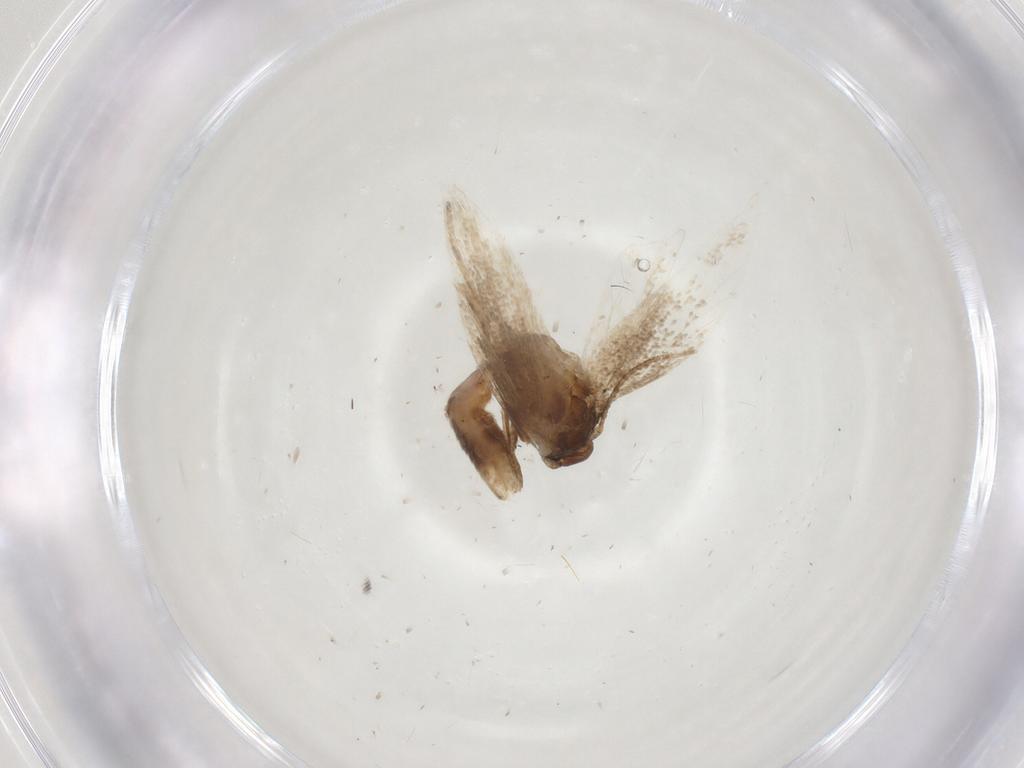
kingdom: Animalia
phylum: Arthropoda
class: Insecta
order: Lepidoptera
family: Gelechiidae
